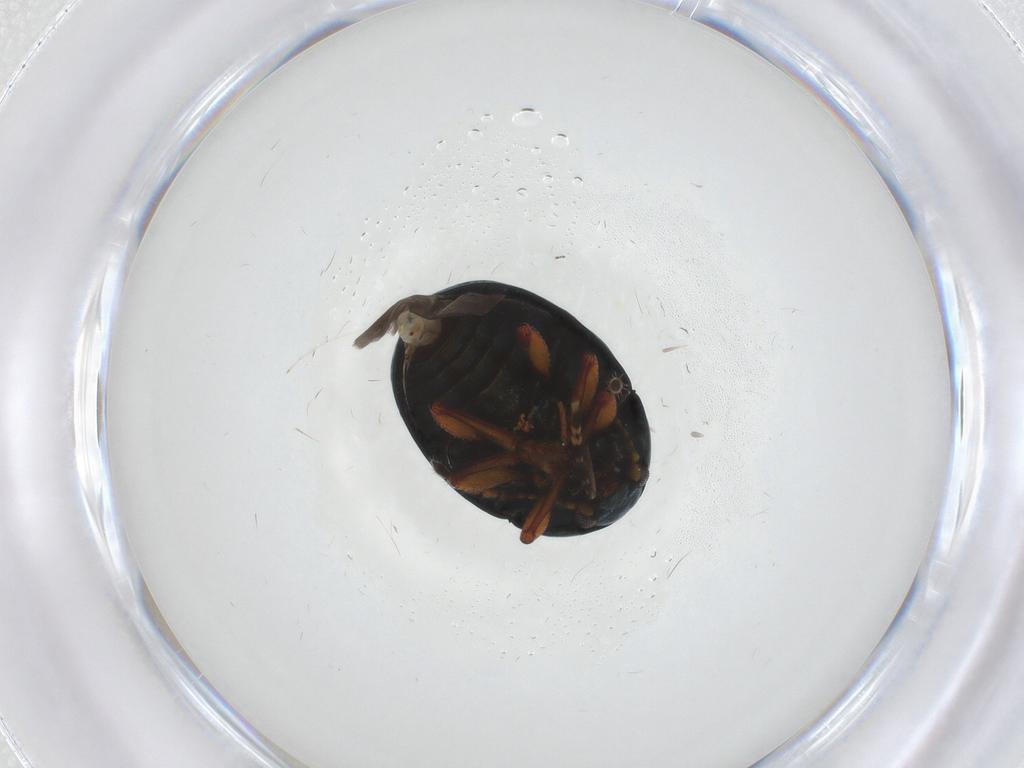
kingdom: Animalia
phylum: Arthropoda
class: Insecta
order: Coleoptera
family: Chrysomelidae
